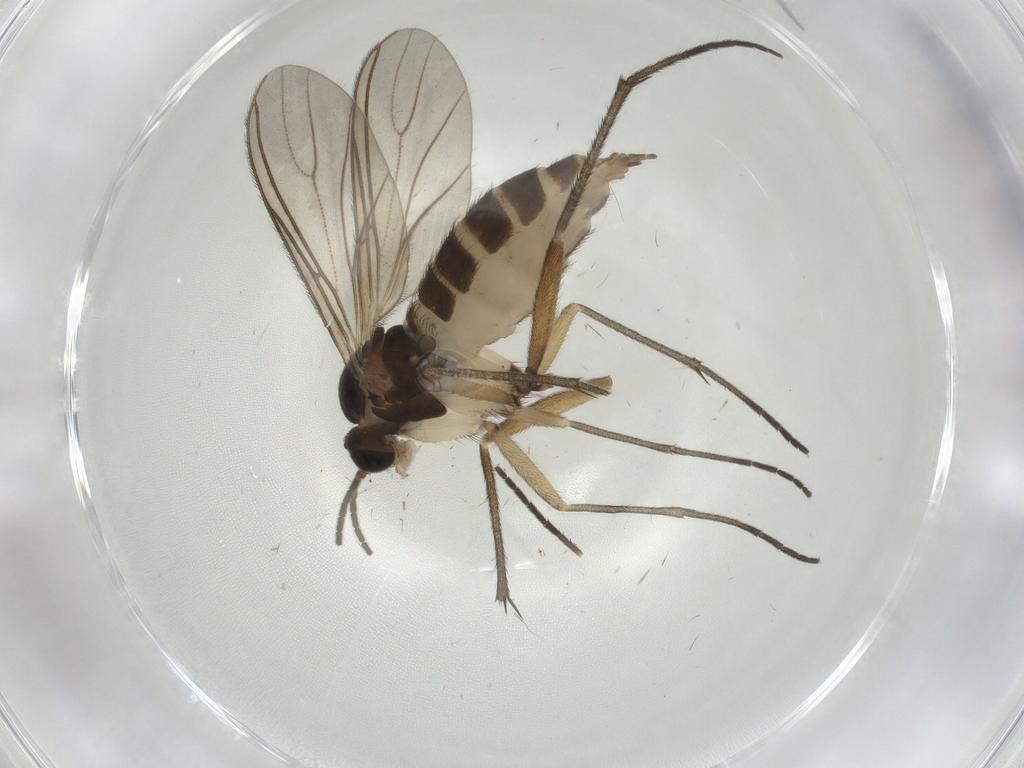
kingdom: Animalia
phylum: Arthropoda
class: Insecta
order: Diptera
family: Sciaridae
